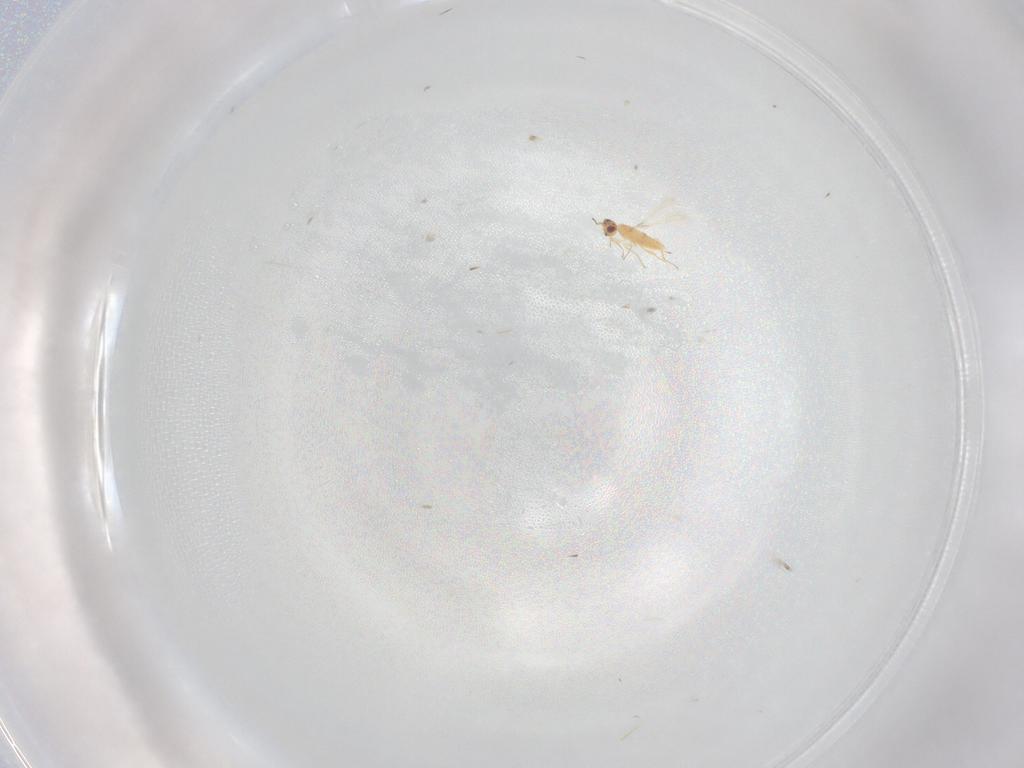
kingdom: Animalia
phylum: Arthropoda
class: Insecta
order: Hymenoptera
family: Mymaridae
